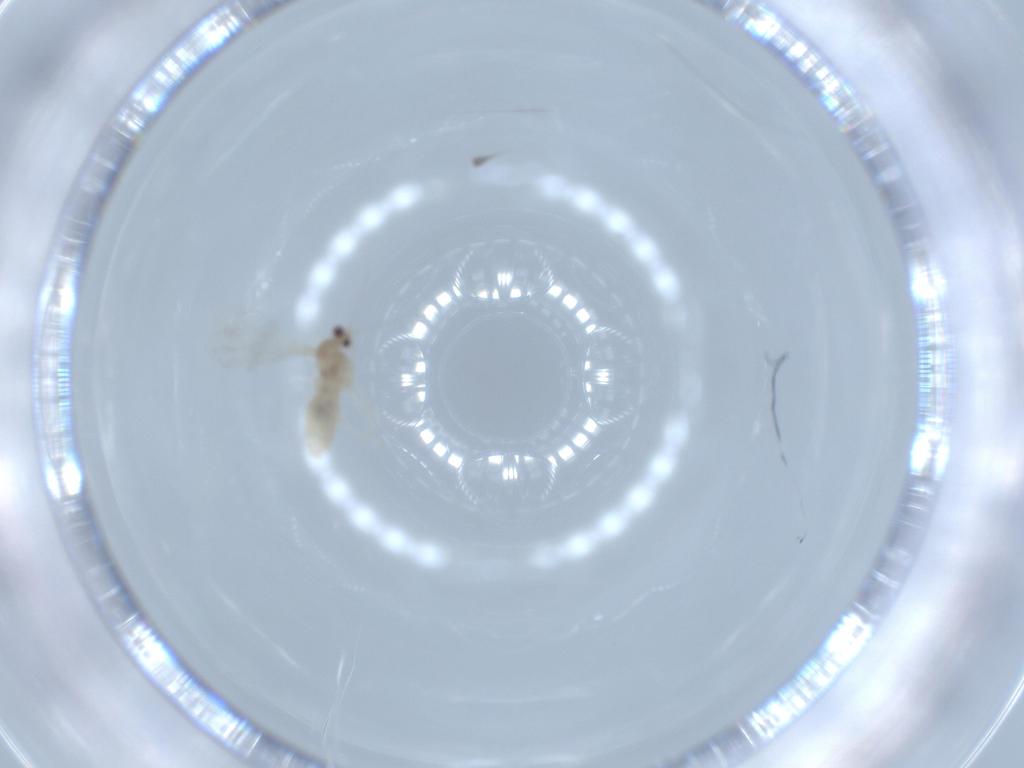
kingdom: Animalia
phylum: Arthropoda
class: Insecta
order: Diptera
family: Cecidomyiidae
